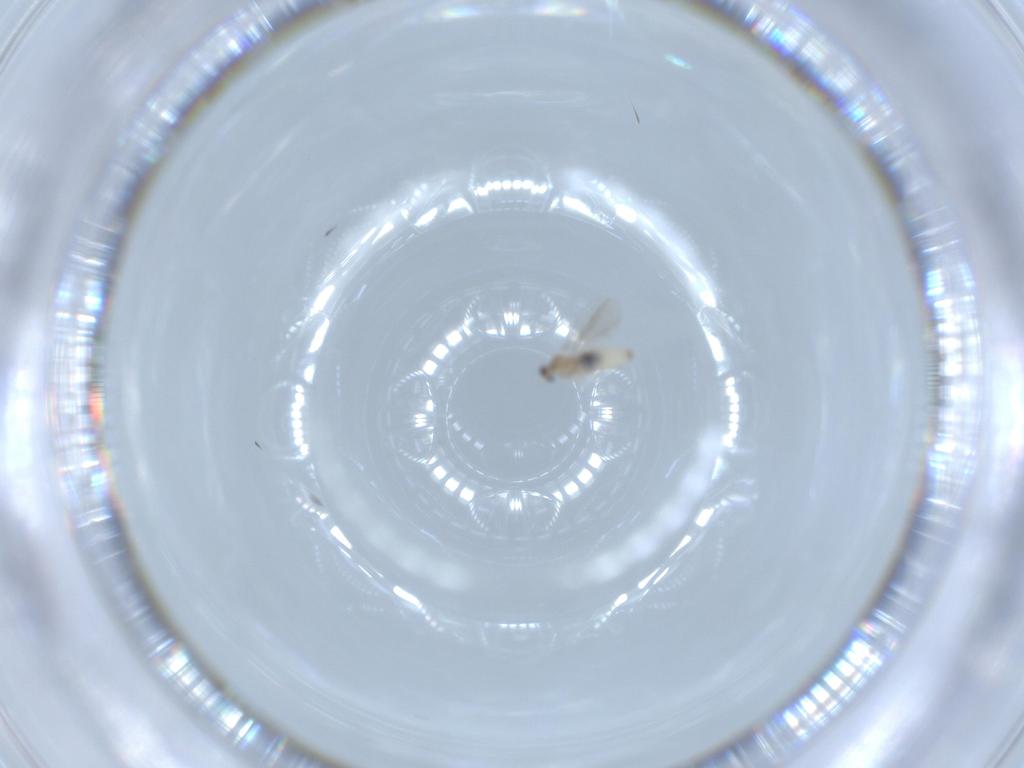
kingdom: Animalia
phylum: Arthropoda
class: Insecta
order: Diptera
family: Cecidomyiidae
